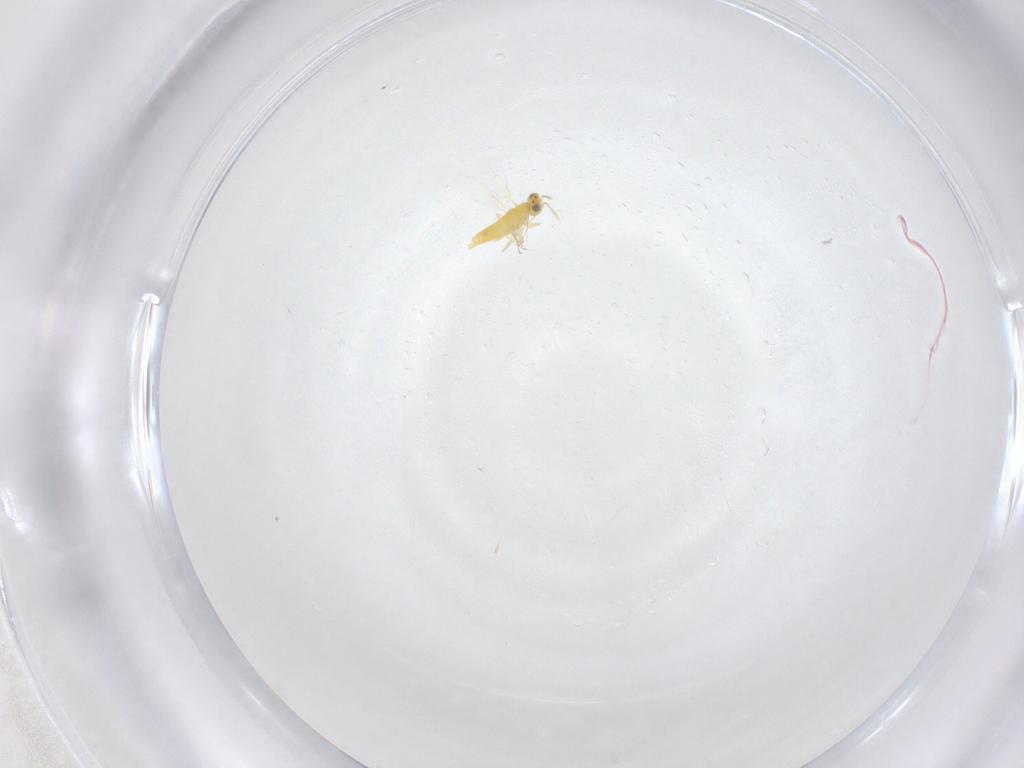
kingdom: Animalia
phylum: Arthropoda
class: Insecta
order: Hymenoptera
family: Aphelinidae
